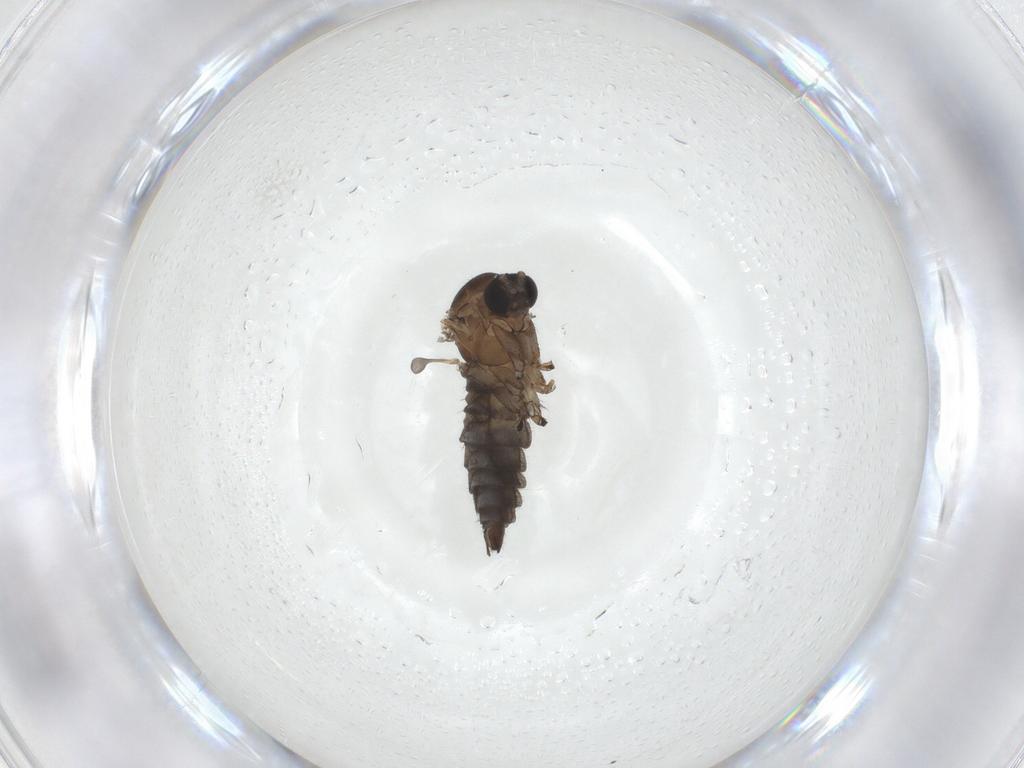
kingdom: Animalia
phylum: Arthropoda
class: Insecta
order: Diptera
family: Sciaridae
